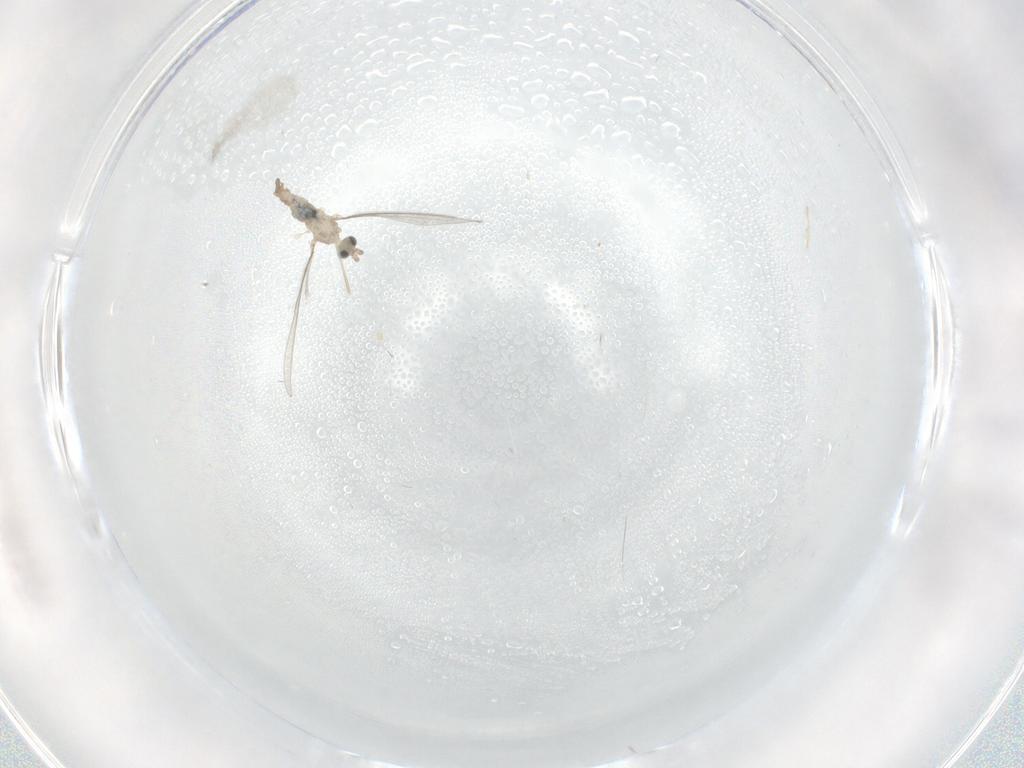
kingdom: Animalia
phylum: Arthropoda
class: Insecta
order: Diptera
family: Cecidomyiidae
